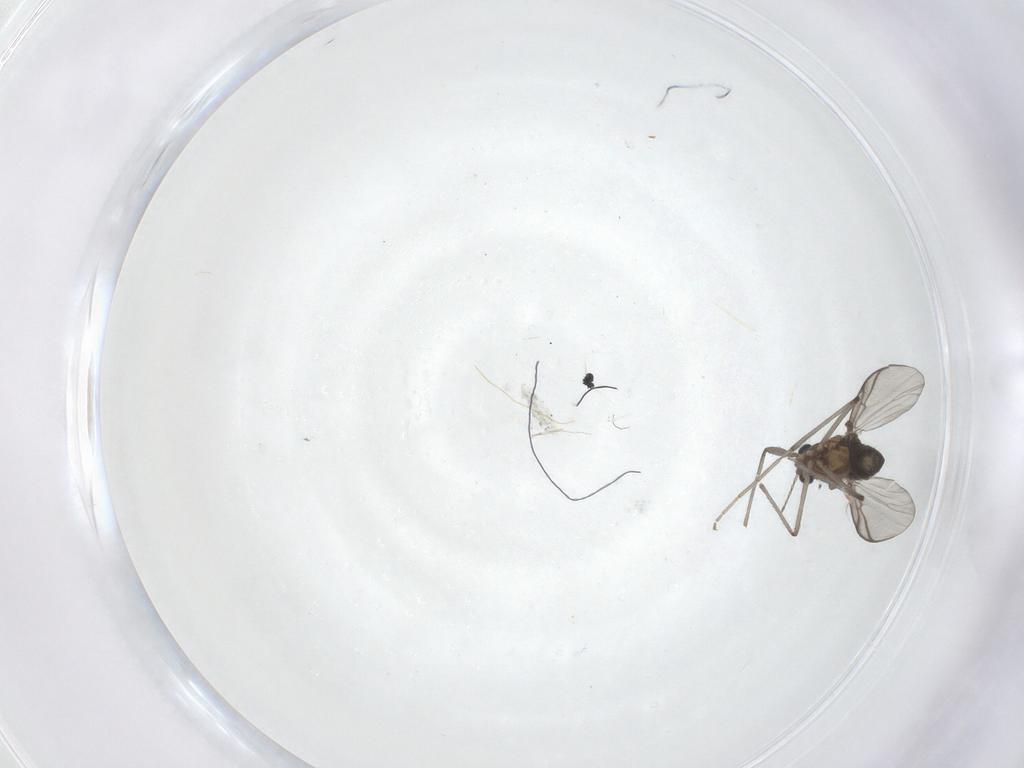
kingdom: Animalia
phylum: Arthropoda
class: Insecta
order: Diptera
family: Chironomidae
